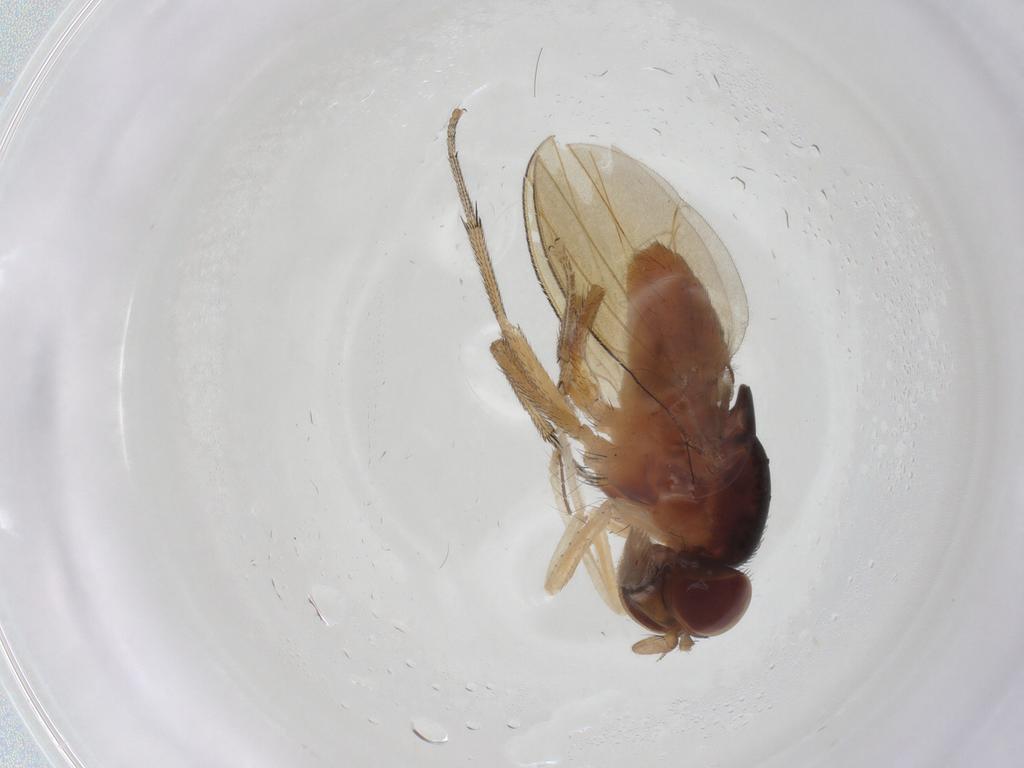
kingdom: Animalia
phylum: Arthropoda
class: Insecta
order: Diptera
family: Lauxaniidae
